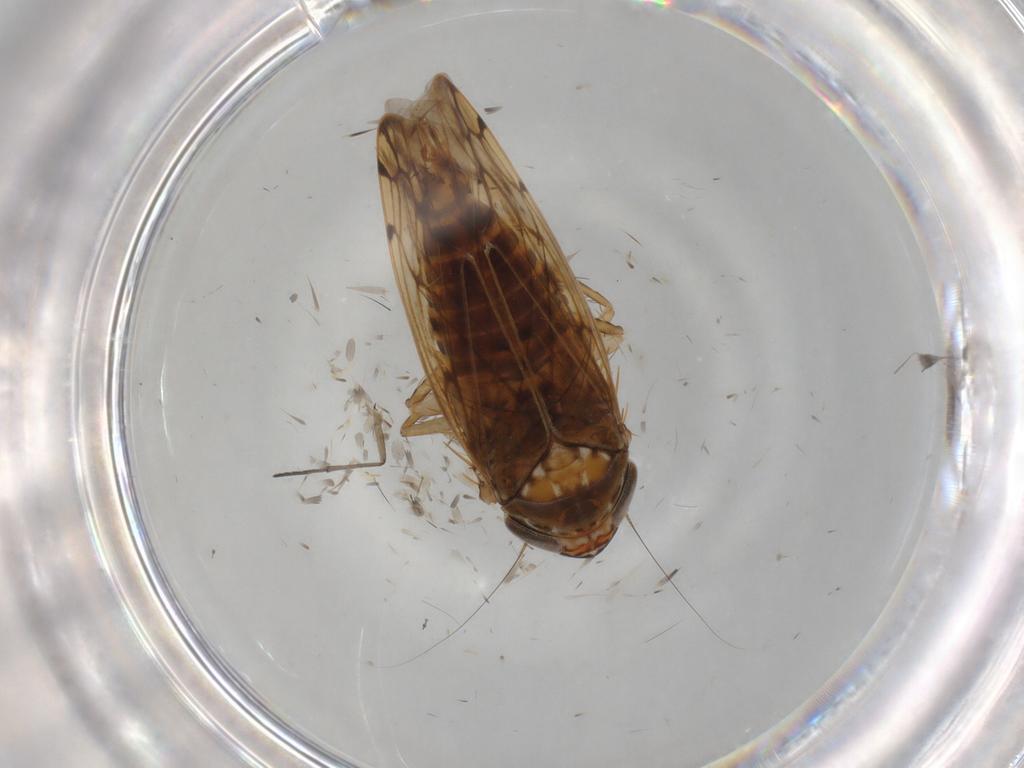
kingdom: Animalia
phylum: Arthropoda
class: Insecta
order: Hemiptera
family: Cicadellidae
